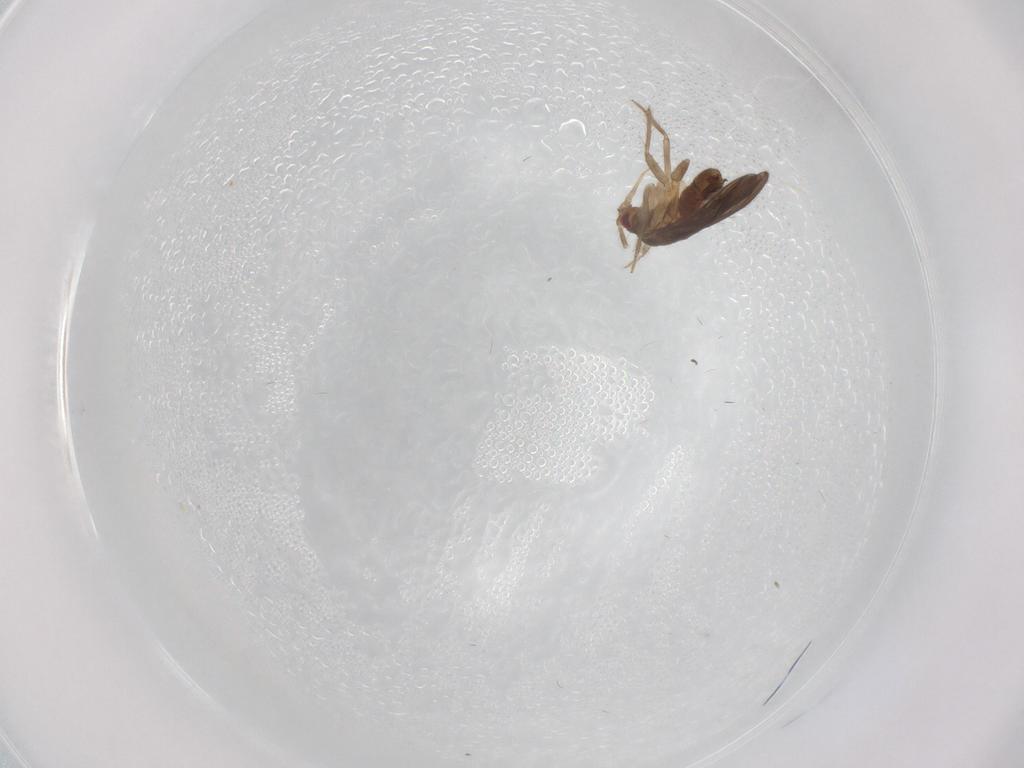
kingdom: Animalia
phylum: Arthropoda
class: Insecta
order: Hemiptera
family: Ceratocombidae
